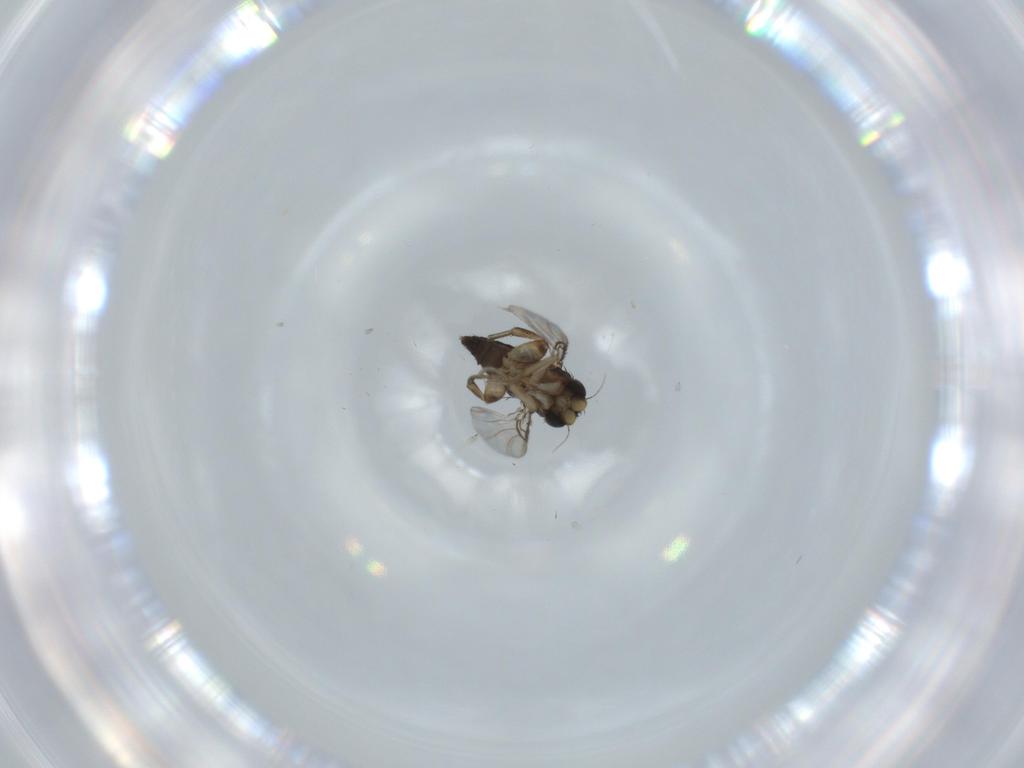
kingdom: Animalia
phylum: Arthropoda
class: Insecta
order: Diptera
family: Phoridae
